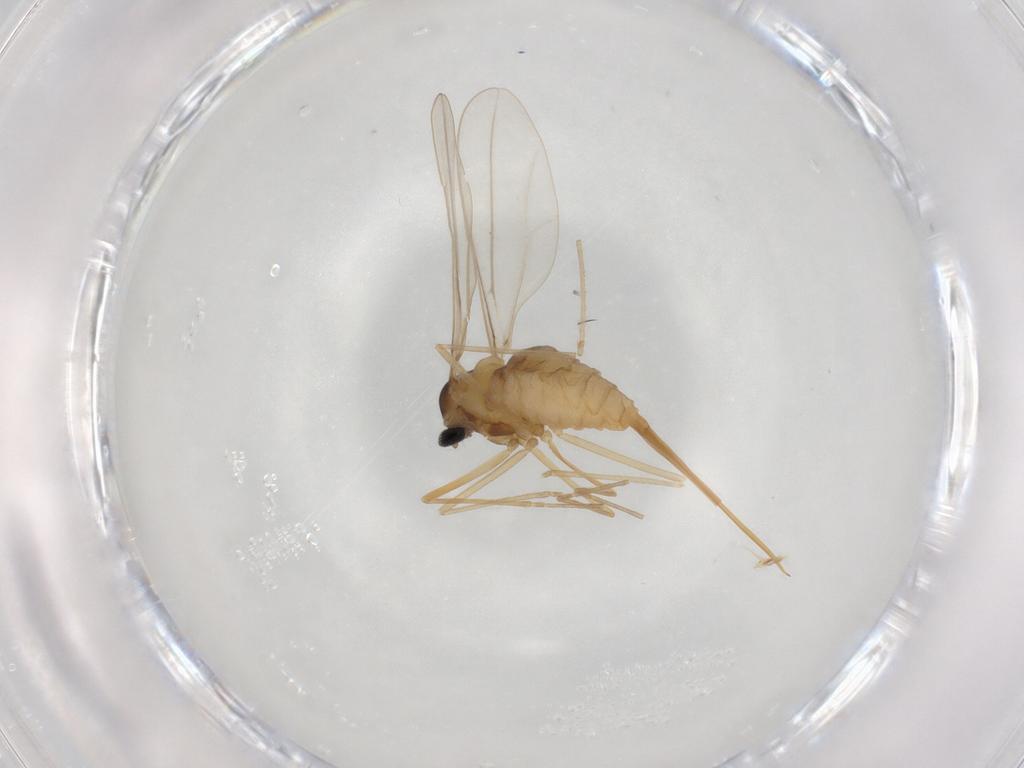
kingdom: Animalia
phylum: Arthropoda
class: Insecta
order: Diptera
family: Cecidomyiidae
